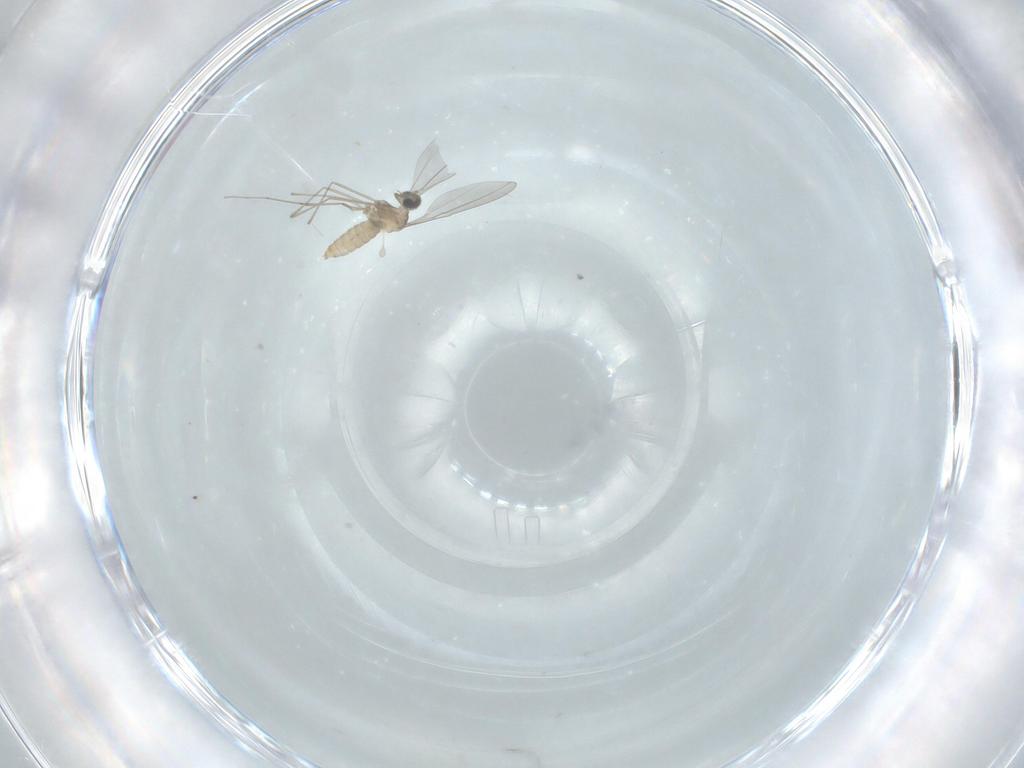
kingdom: Animalia
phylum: Arthropoda
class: Insecta
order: Diptera
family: Cecidomyiidae
